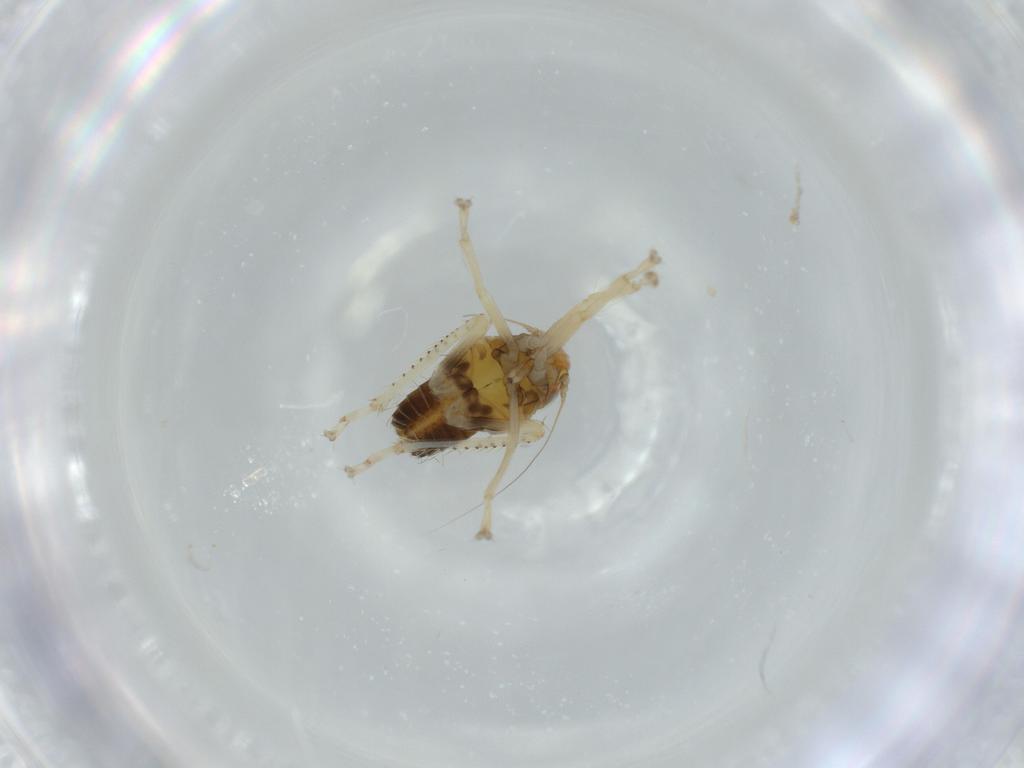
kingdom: Animalia
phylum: Arthropoda
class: Insecta
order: Hemiptera
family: Cicadellidae
